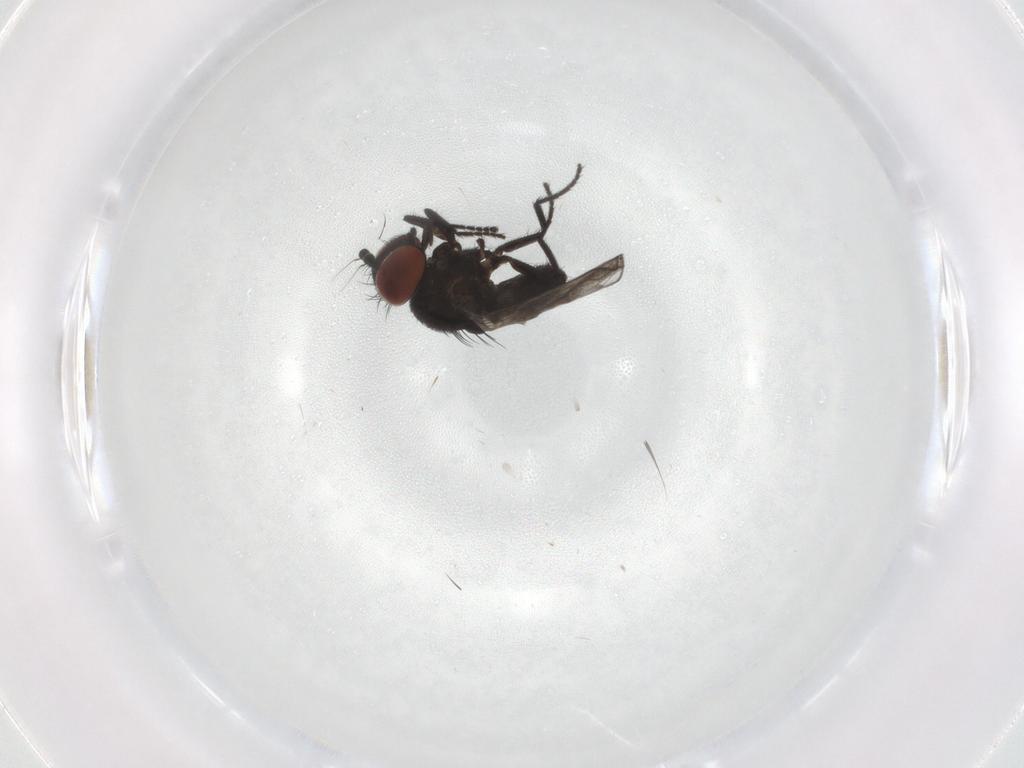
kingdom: Animalia
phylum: Arthropoda
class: Insecta
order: Diptera
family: Milichiidae
